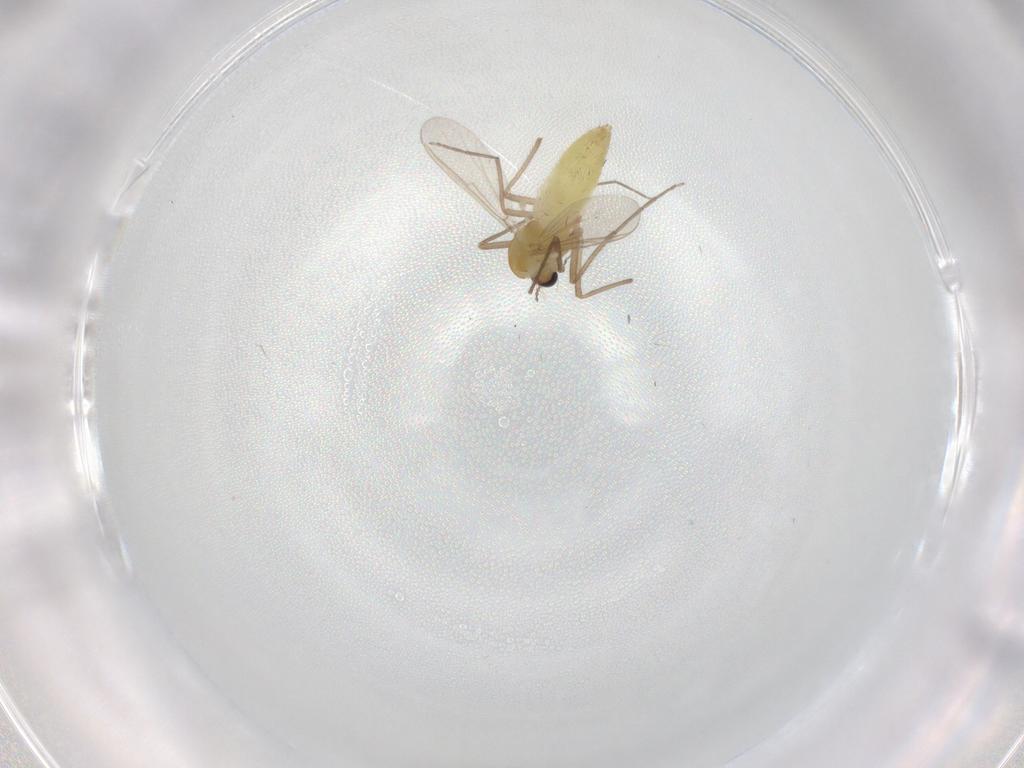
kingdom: Animalia
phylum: Arthropoda
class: Insecta
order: Diptera
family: Chironomidae
